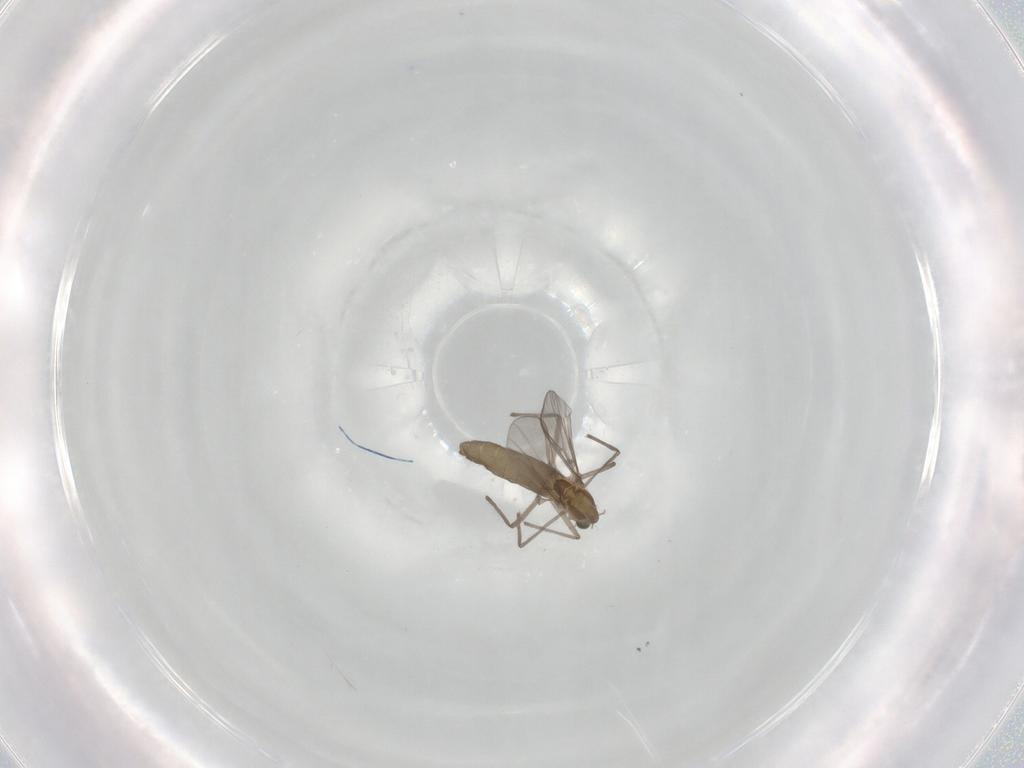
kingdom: Animalia
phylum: Arthropoda
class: Insecta
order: Diptera
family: Chironomidae
